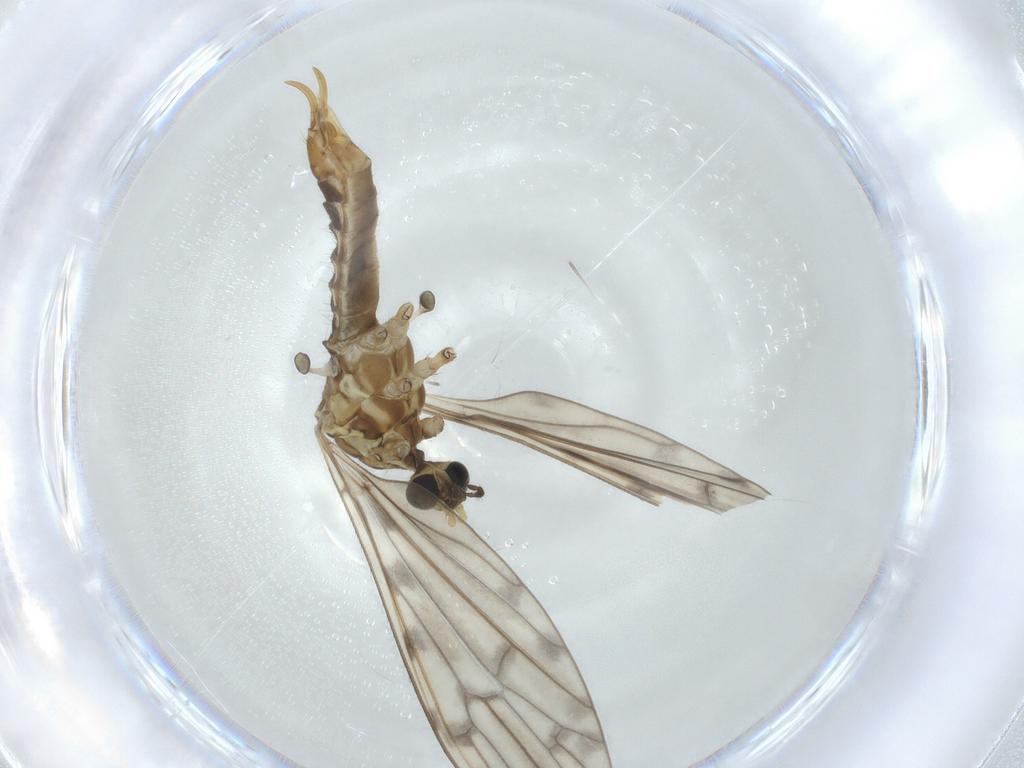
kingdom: Animalia
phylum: Arthropoda
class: Insecta
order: Diptera
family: Limoniidae
